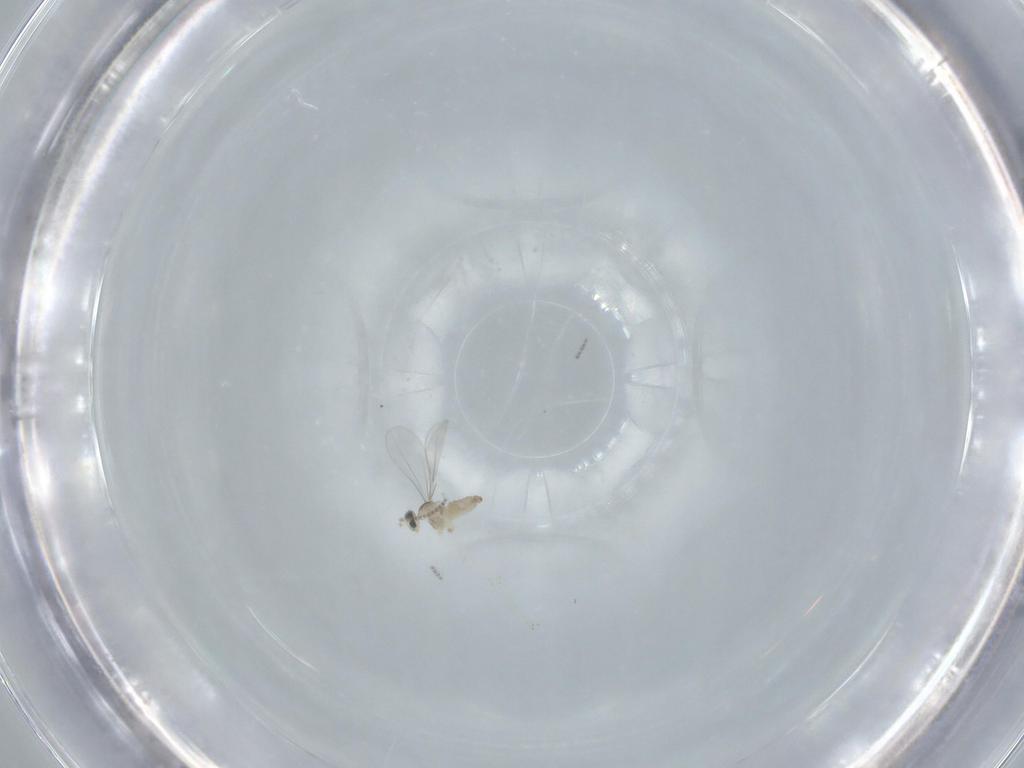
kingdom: Animalia
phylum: Arthropoda
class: Insecta
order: Diptera
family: Cecidomyiidae
